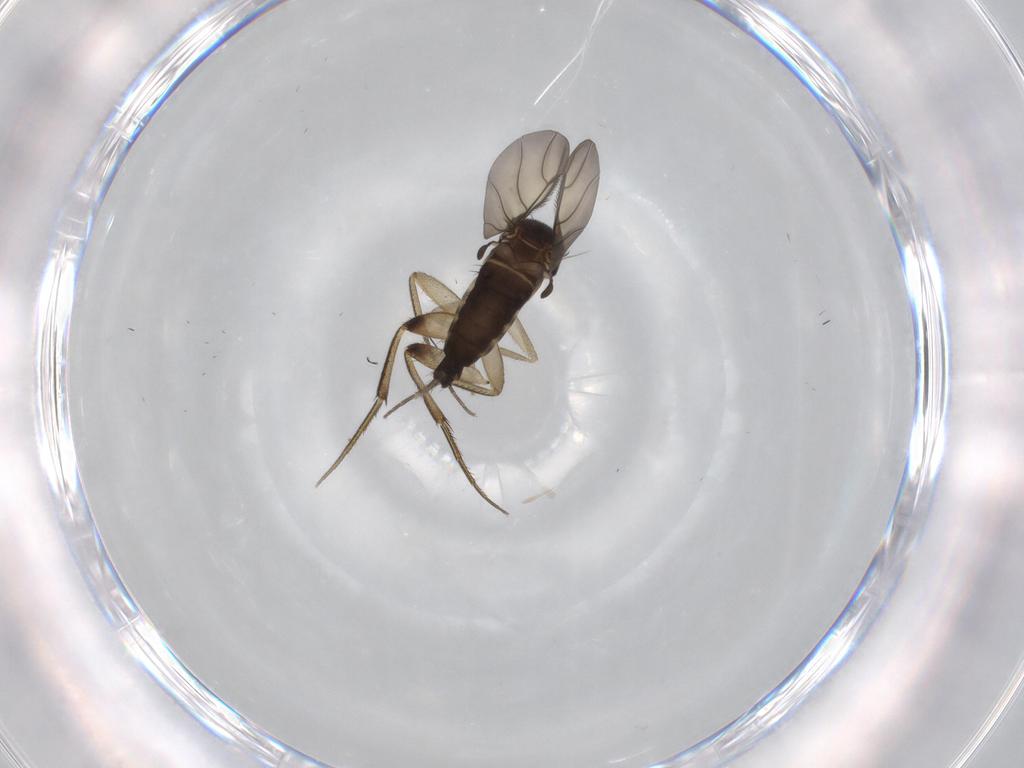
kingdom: Animalia
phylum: Arthropoda
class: Insecta
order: Diptera
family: Phoridae
